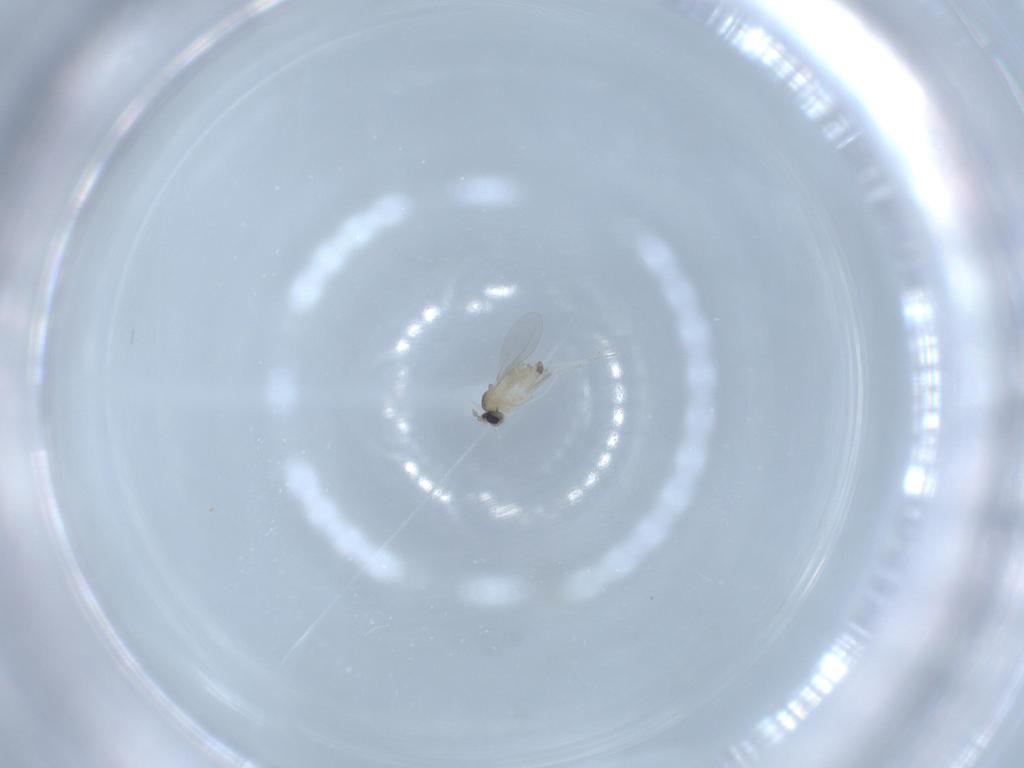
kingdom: Animalia
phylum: Arthropoda
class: Insecta
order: Diptera
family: Cecidomyiidae
